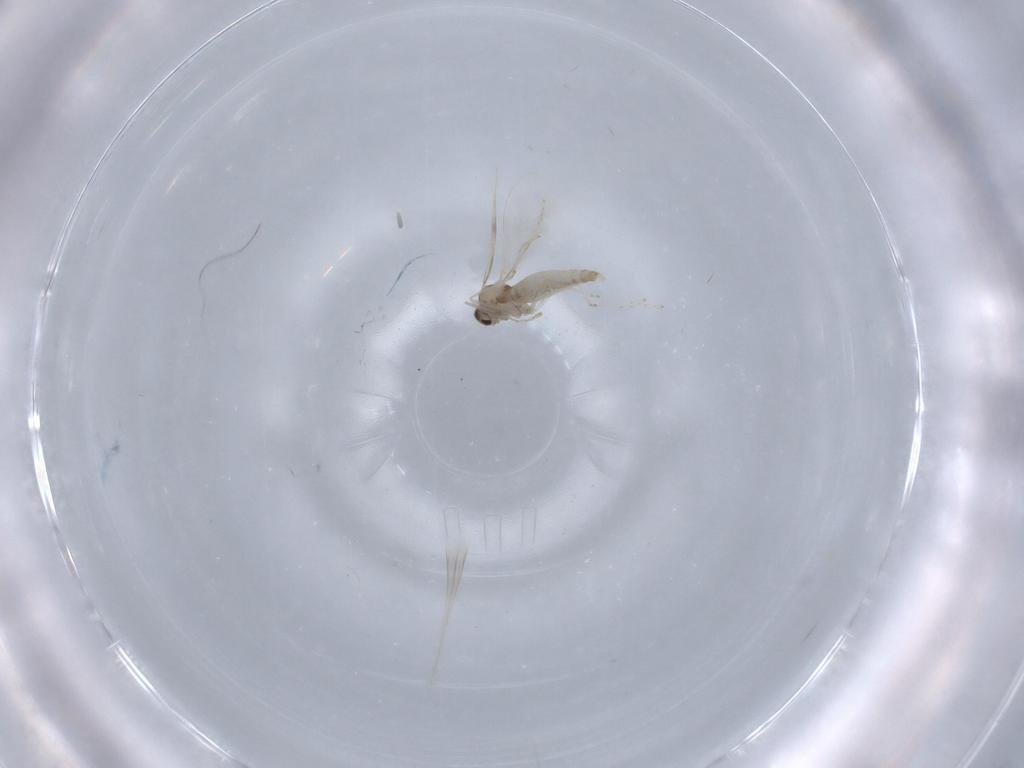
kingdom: Animalia
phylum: Arthropoda
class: Insecta
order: Diptera
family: Cecidomyiidae
